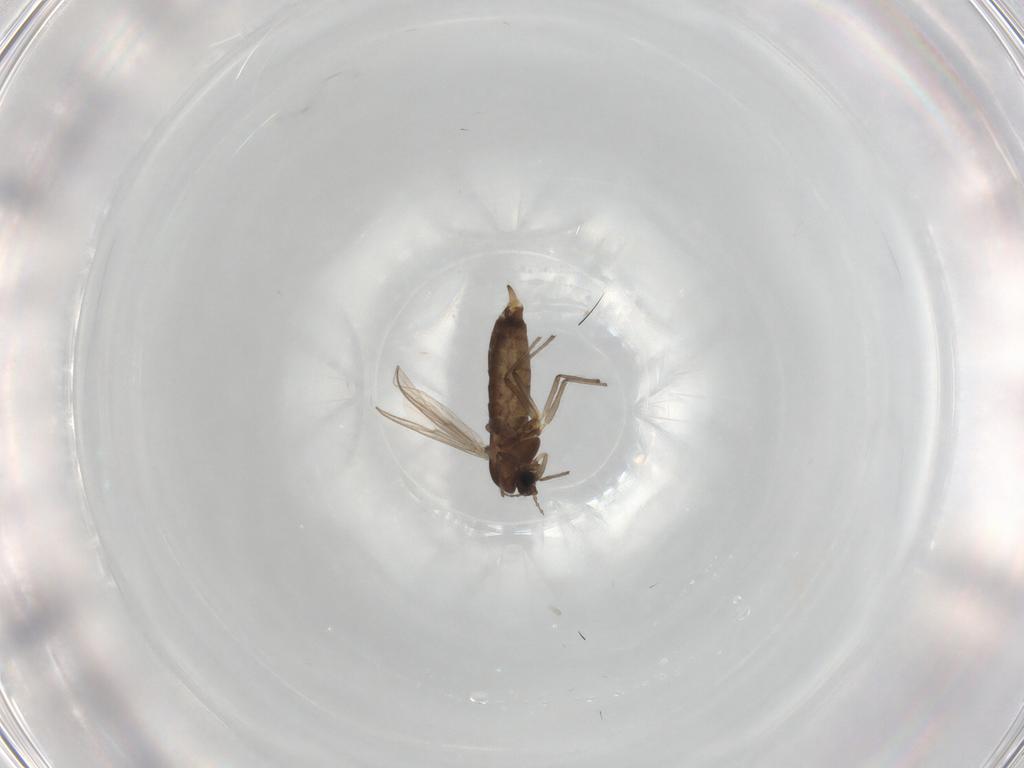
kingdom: Animalia
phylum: Arthropoda
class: Insecta
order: Diptera
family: Chironomidae
